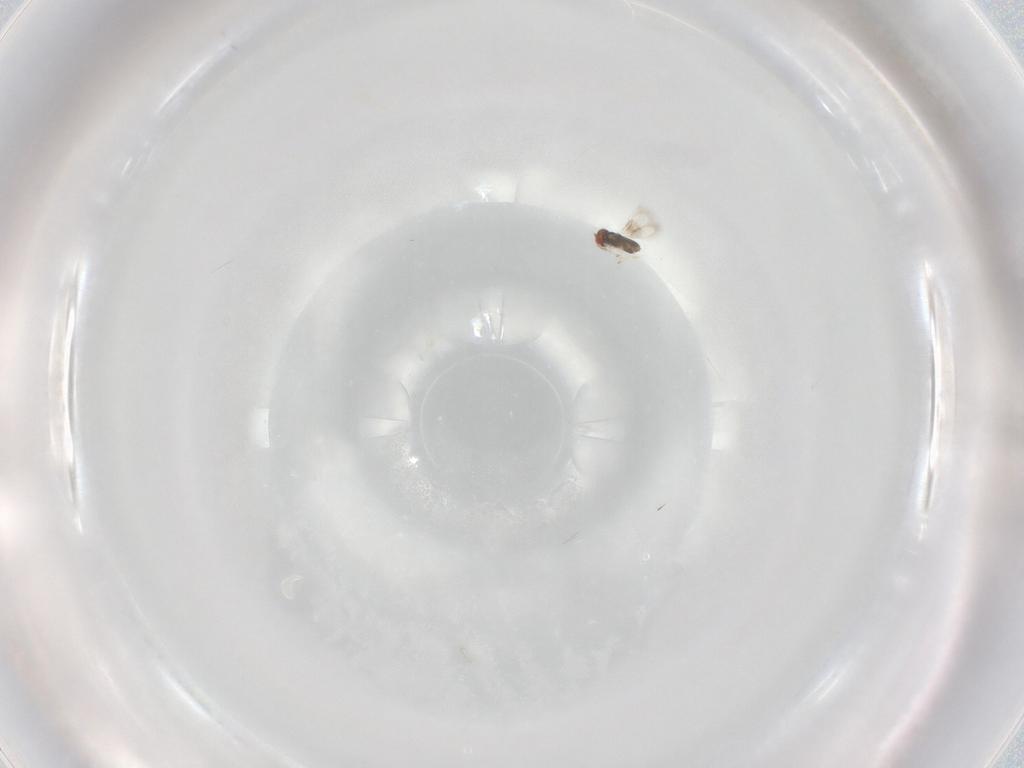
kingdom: Animalia
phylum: Arthropoda
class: Insecta
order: Hymenoptera
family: Azotidae
